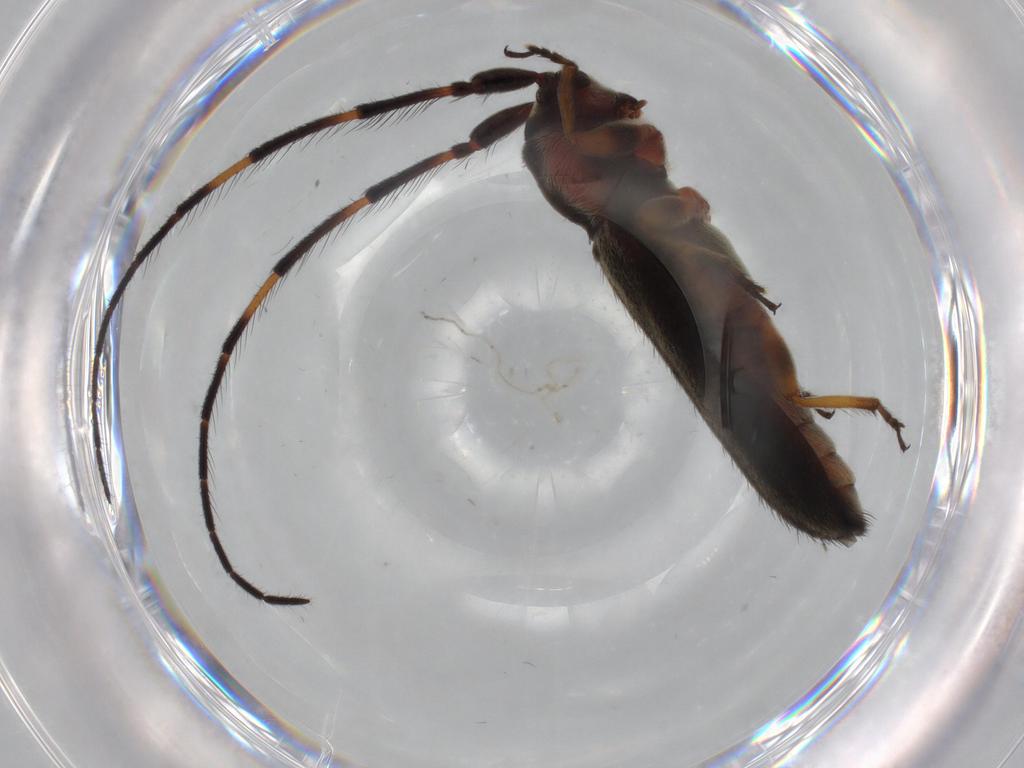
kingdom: Animalia
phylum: Arthropoda
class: Insecta
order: Coleoptera
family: Cerambycidae
